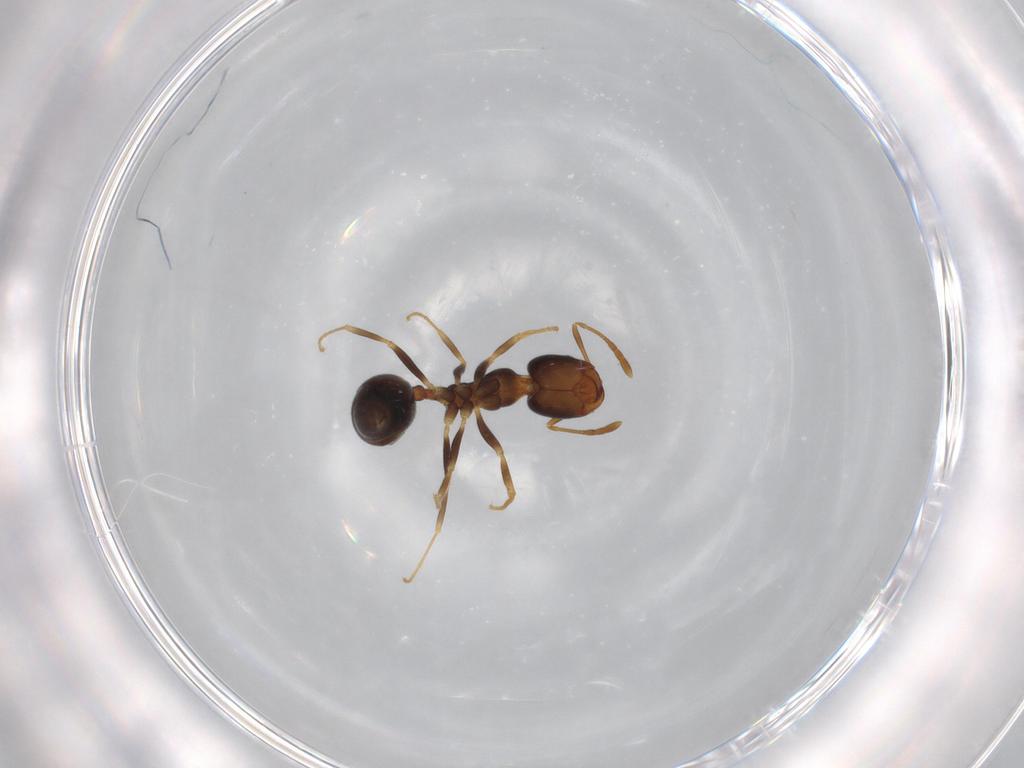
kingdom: Animalia
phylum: Arthropoda
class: Insecta
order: Hymenoptera
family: Formicidae
